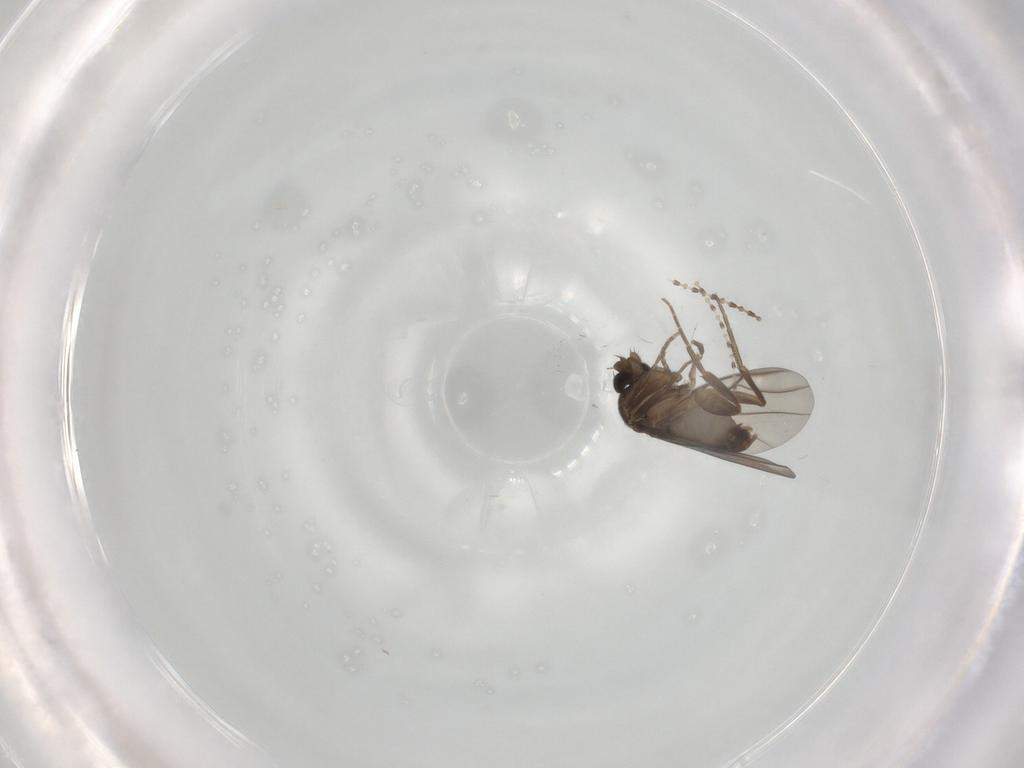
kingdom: Animalia
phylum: Arthropoda
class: Insecta
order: Diptera
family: Phoridae
